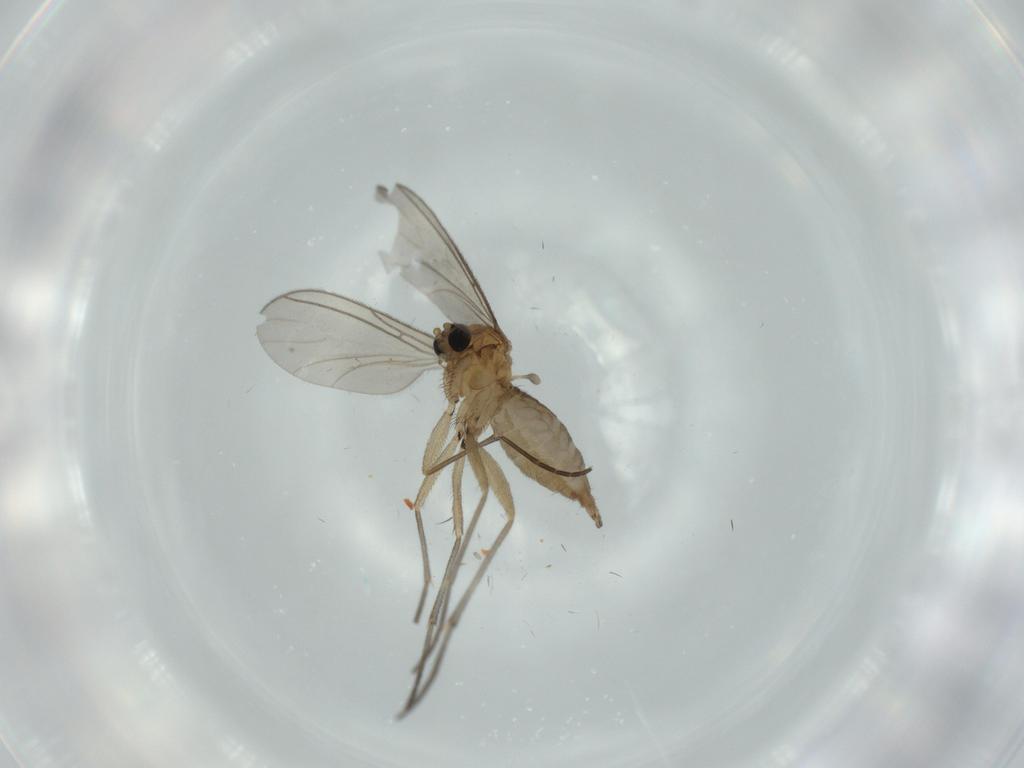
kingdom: Animalia
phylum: Arthropoda
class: Insecta
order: Diptera
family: Sciaridae
